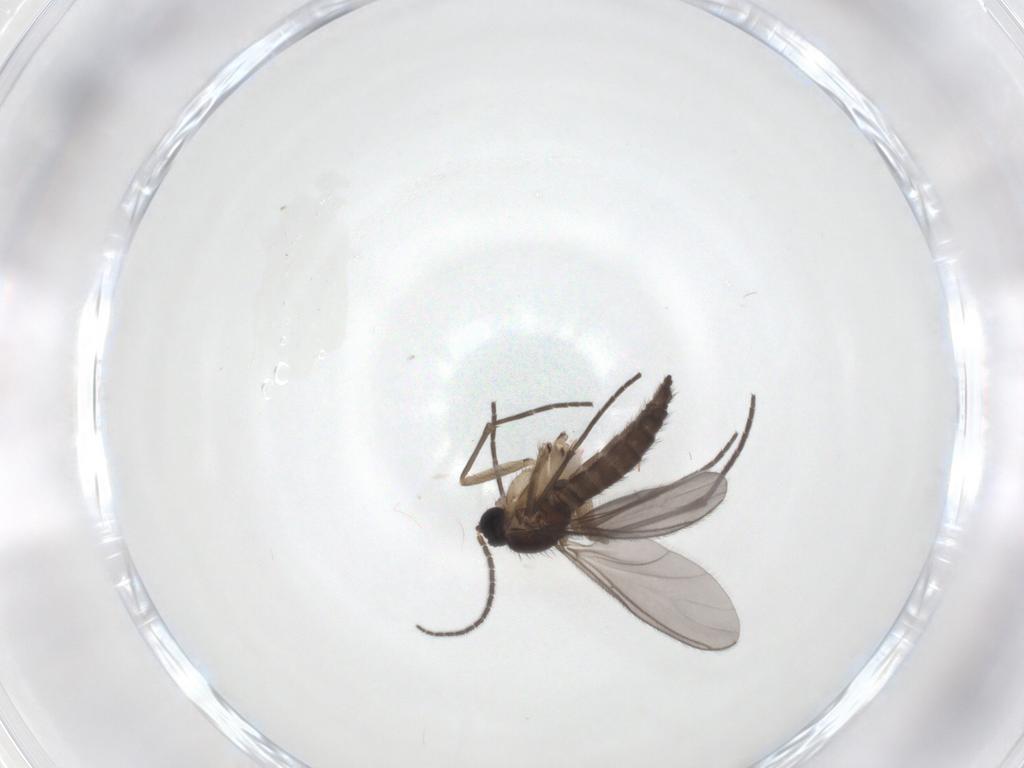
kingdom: Animalia
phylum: Arthropoda
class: Insecta
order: Diptera
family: Sciaridae
